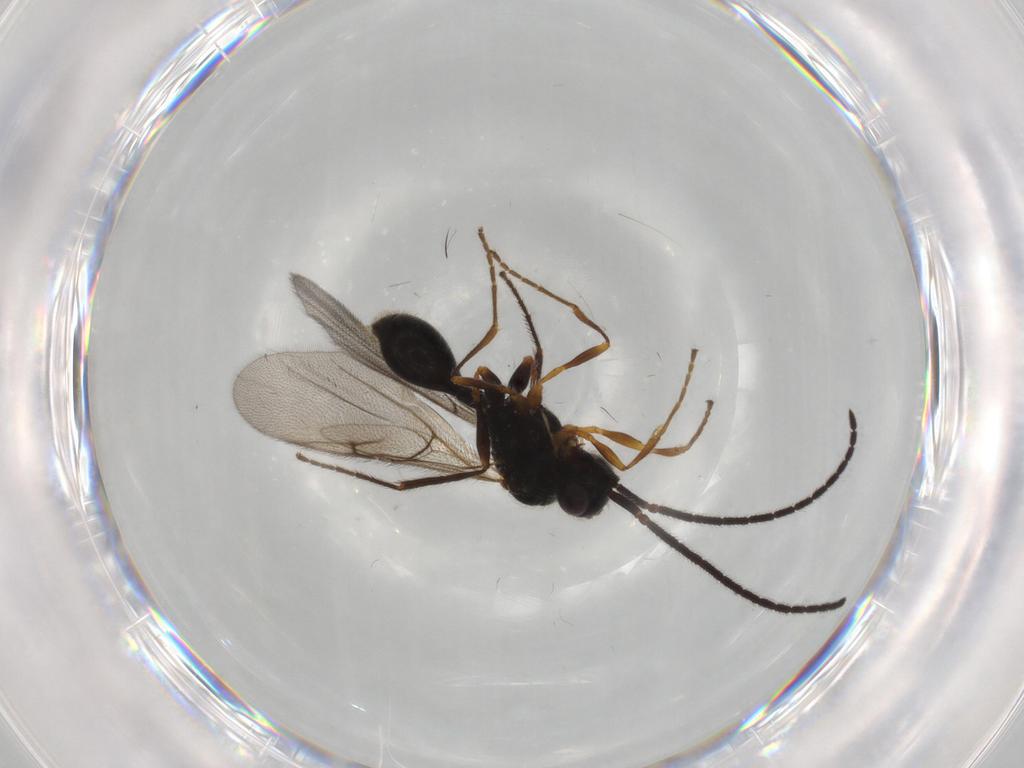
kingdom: Animalia
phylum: Arthropoda
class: Insecta
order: Hymenoptera
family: Diapriidae
